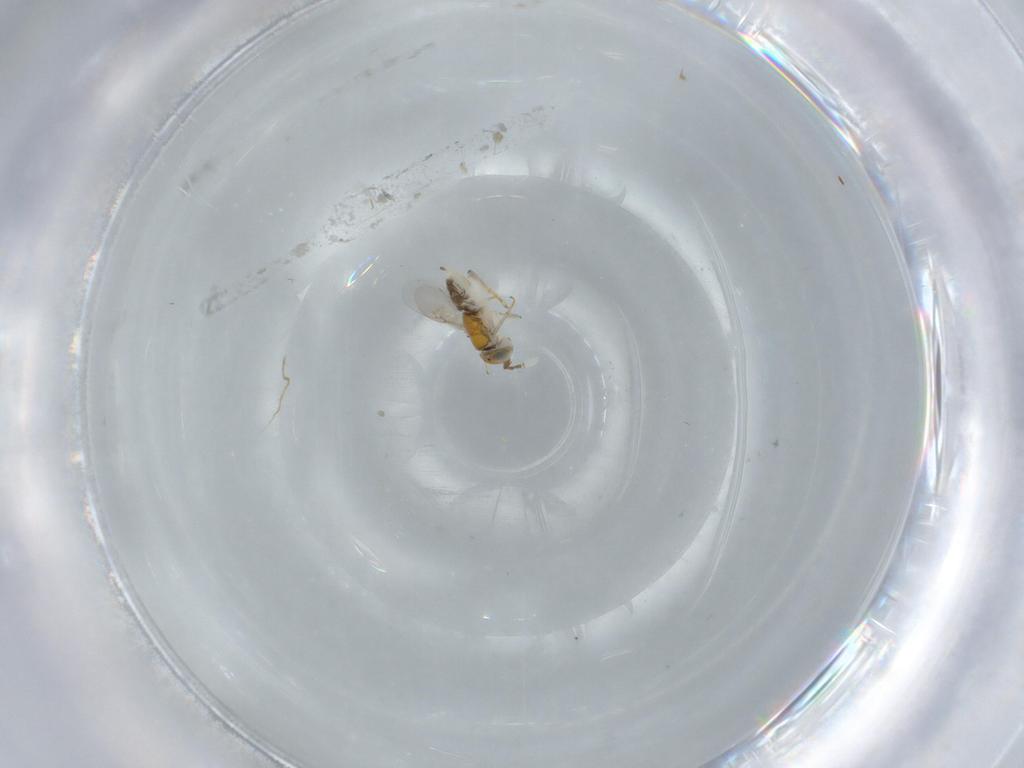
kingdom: Animalia
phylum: Arthropoda
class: Insecta
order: Hymenoptera
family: Encyrtidae
